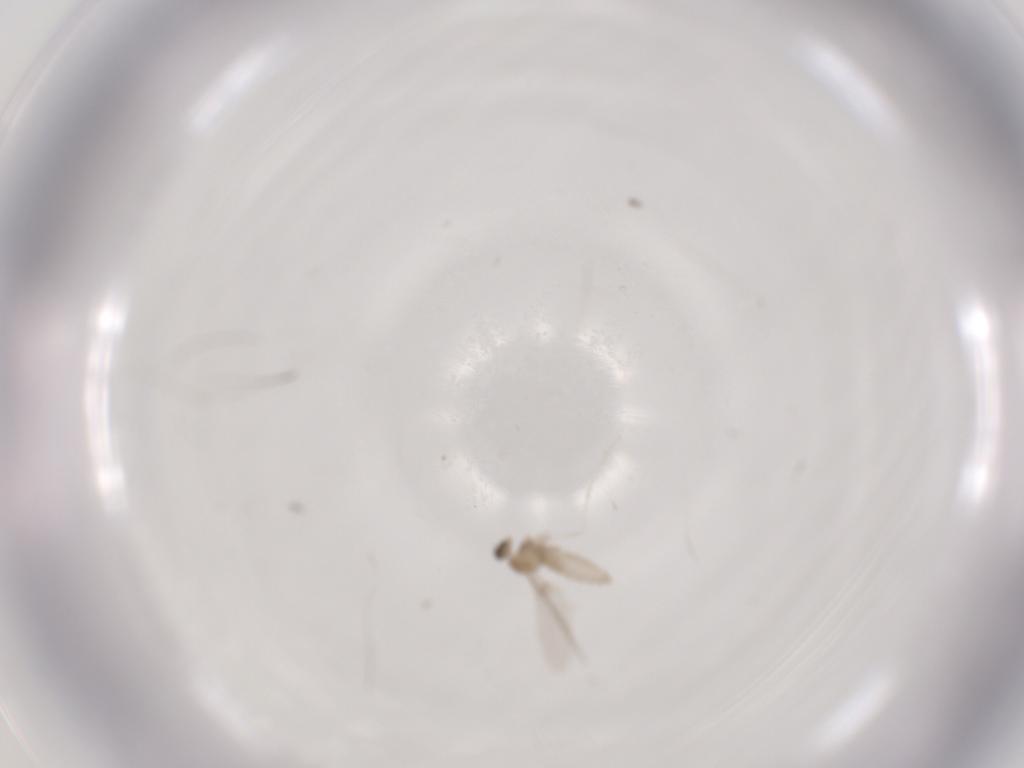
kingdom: Animalia
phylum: Arthropoda
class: Insecta
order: Diptera
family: Cecidomyiidae
